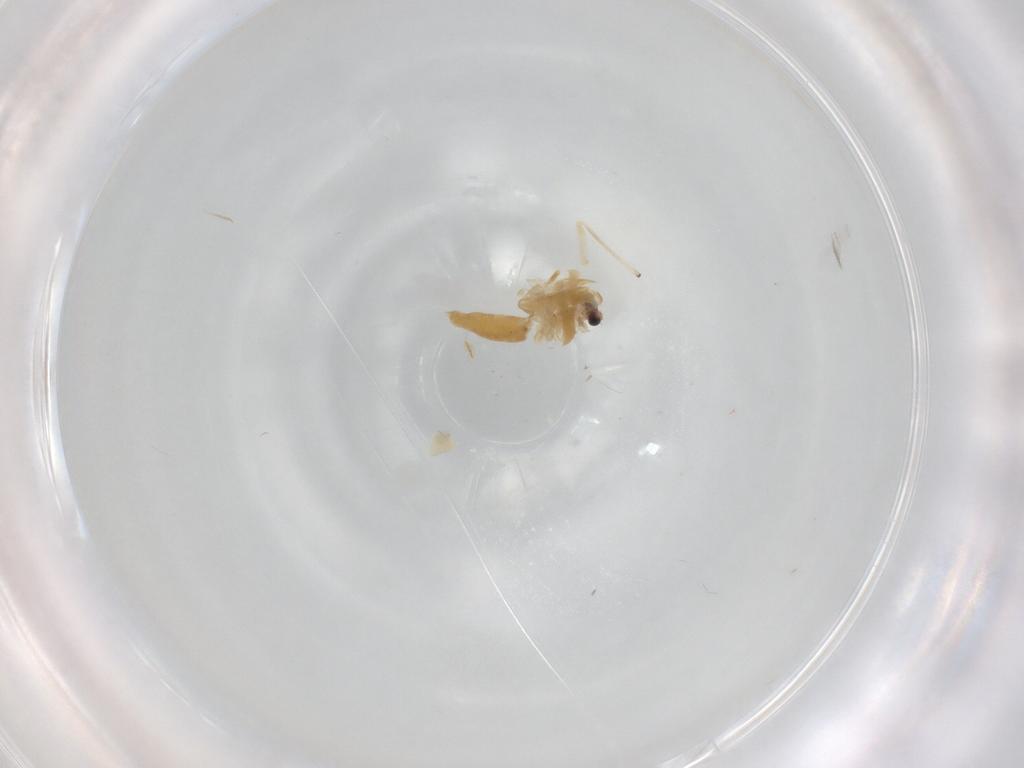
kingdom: Animalia
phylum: Arthropoda
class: Insecta
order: Diptera
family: Chironomidae
